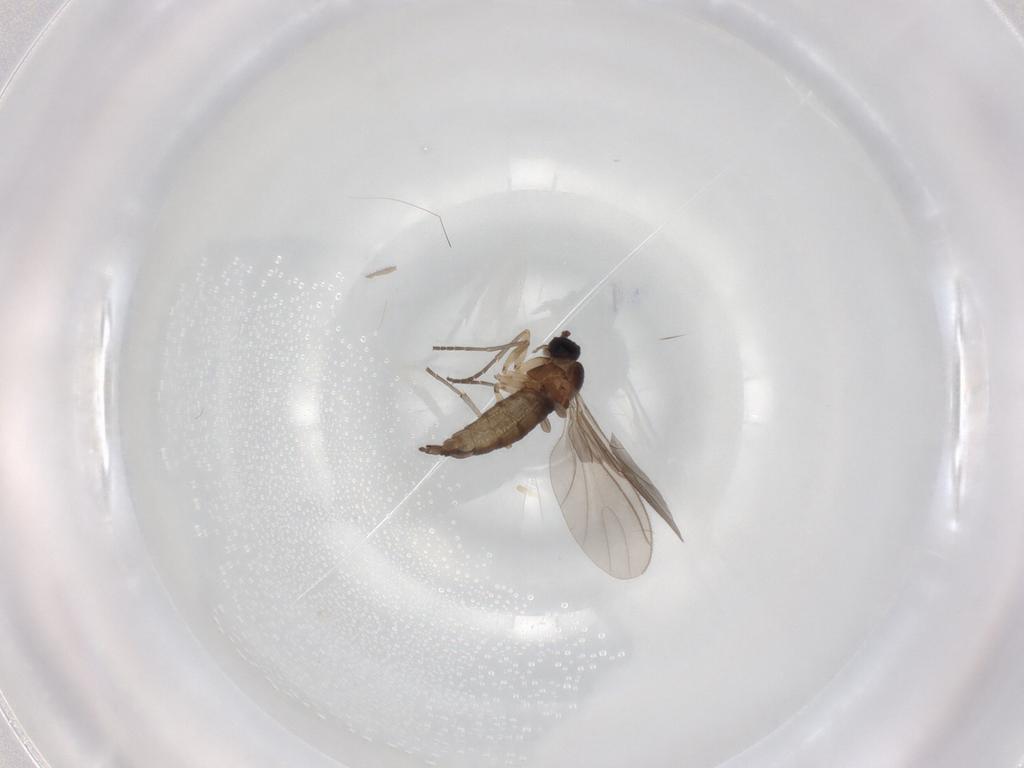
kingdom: Animalia
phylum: Arthropoda
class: Insecta
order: Diptera
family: Sciaridae
